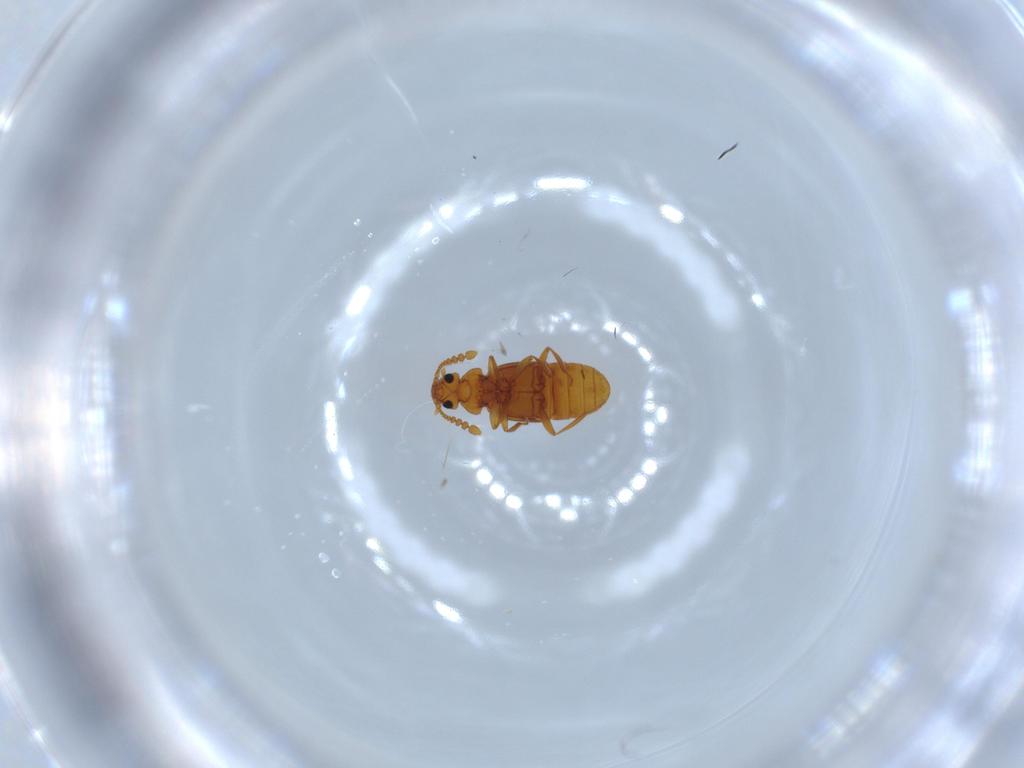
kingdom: Animalia
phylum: Arthropoda
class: Insecta
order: Coleoptera
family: Staphylinidae
